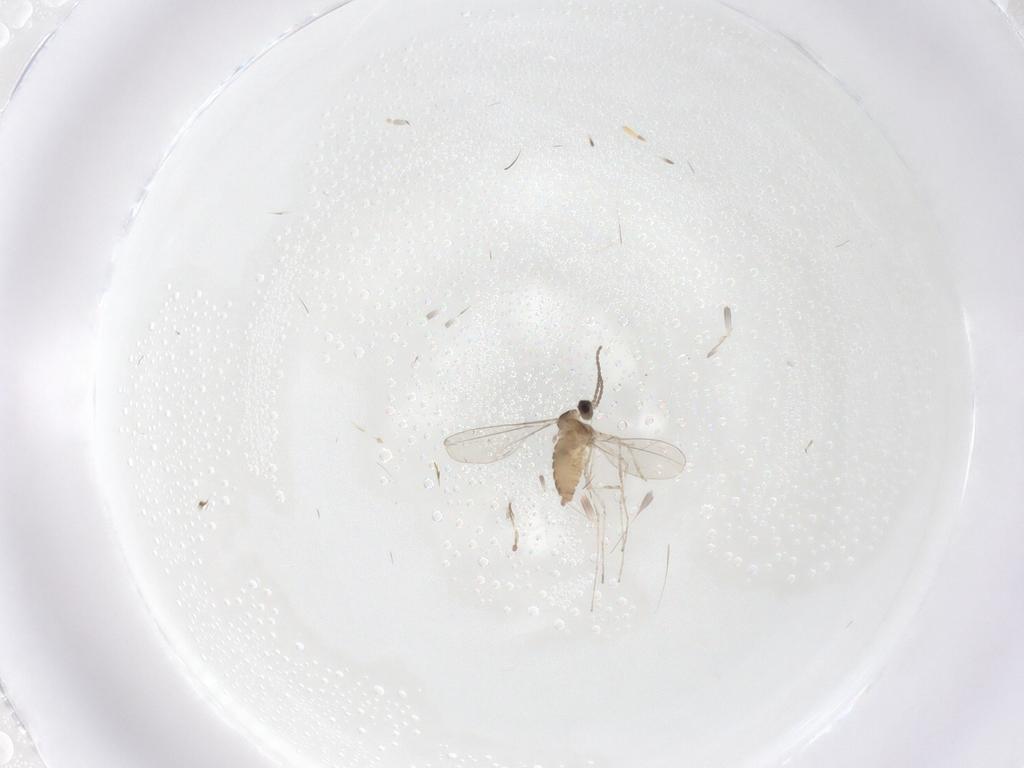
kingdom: Animalia
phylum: Arthropoda
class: Insecta
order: Diptera
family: Cecidomyiidae
